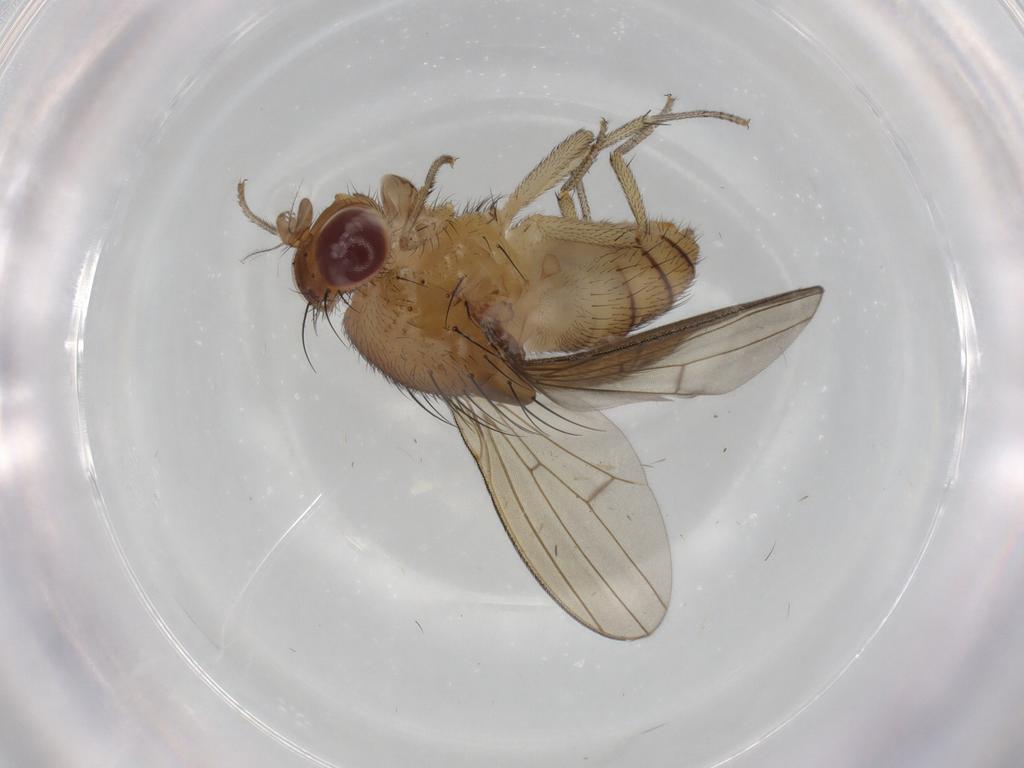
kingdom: Animalia
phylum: Arthropoda
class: Insecta
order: Diptera
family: Lauxaniidae
